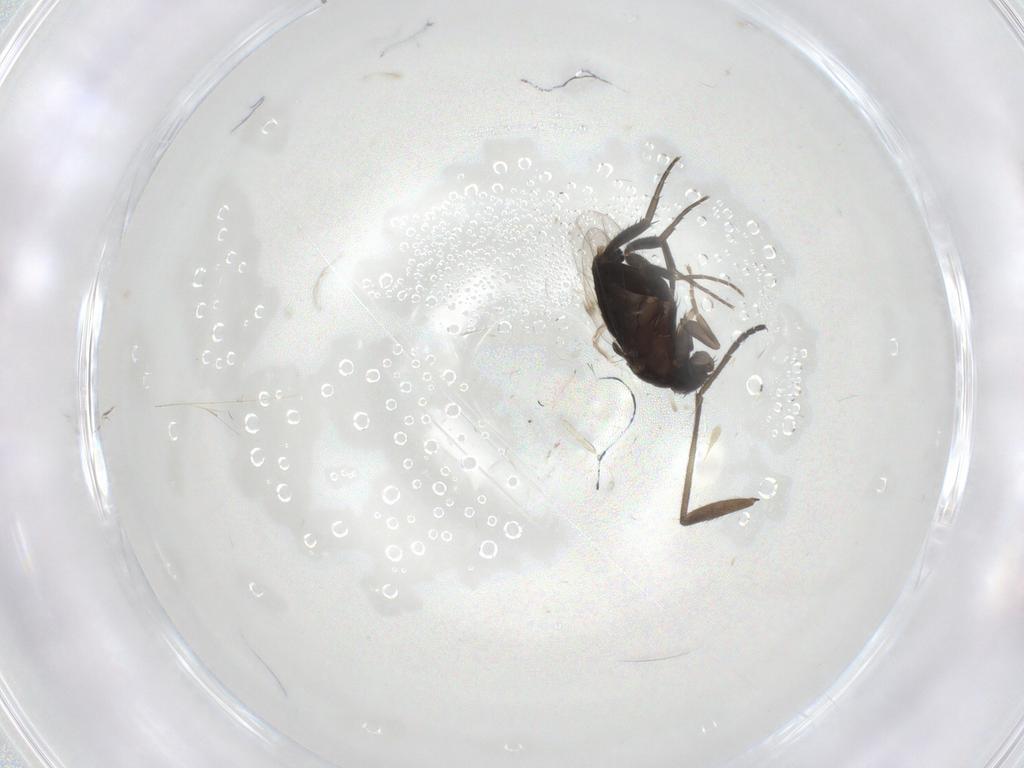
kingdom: Animalia
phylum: Arthropoda
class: Insecta
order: Diptera
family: Sciaridae
